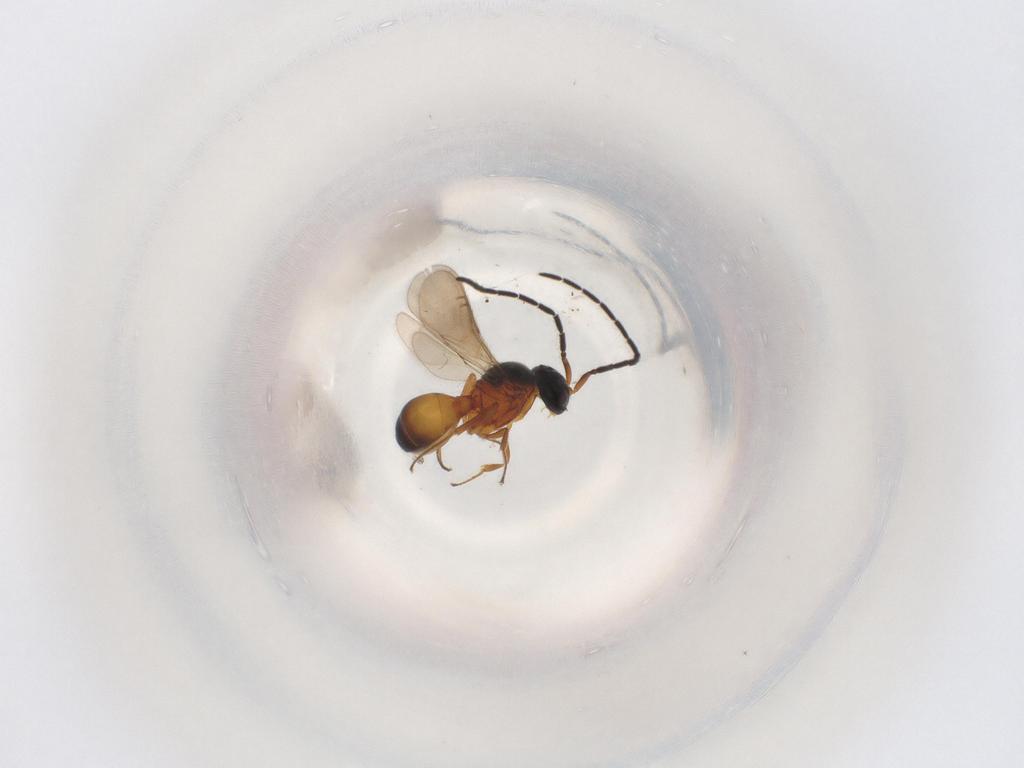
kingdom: Animalia
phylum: Arthropoda
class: Insecta
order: Hymenoptera
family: Scelionidae
